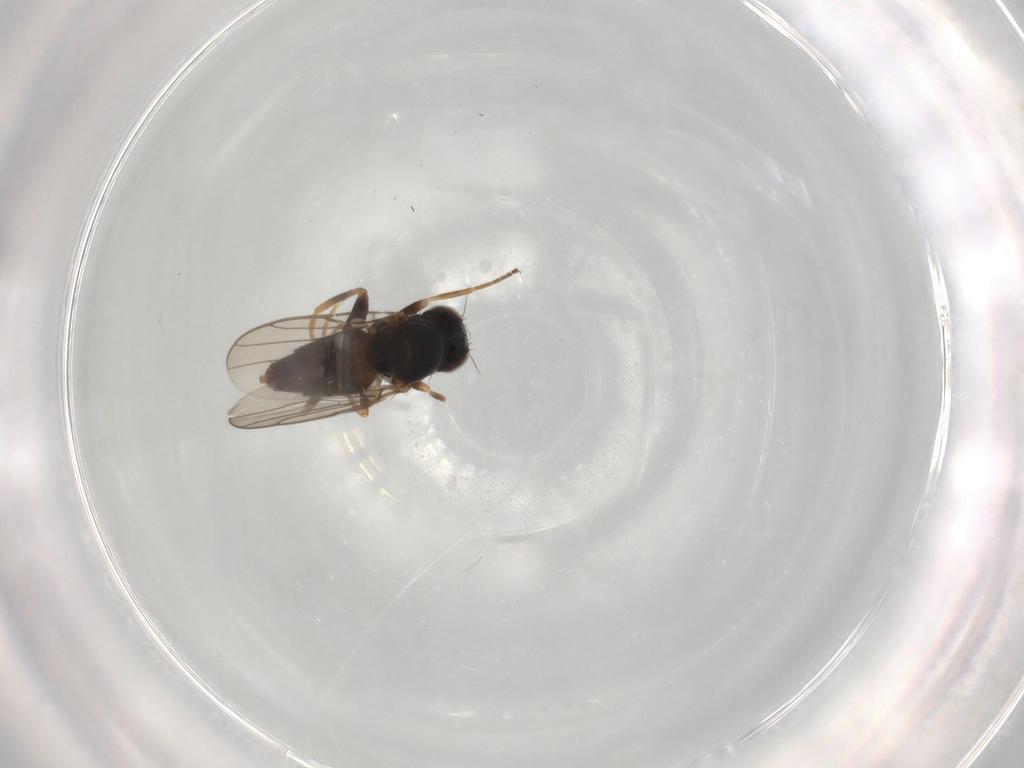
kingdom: Animalia
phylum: Arthropoda
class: Insecta
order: Diptera
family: Chloropidae
